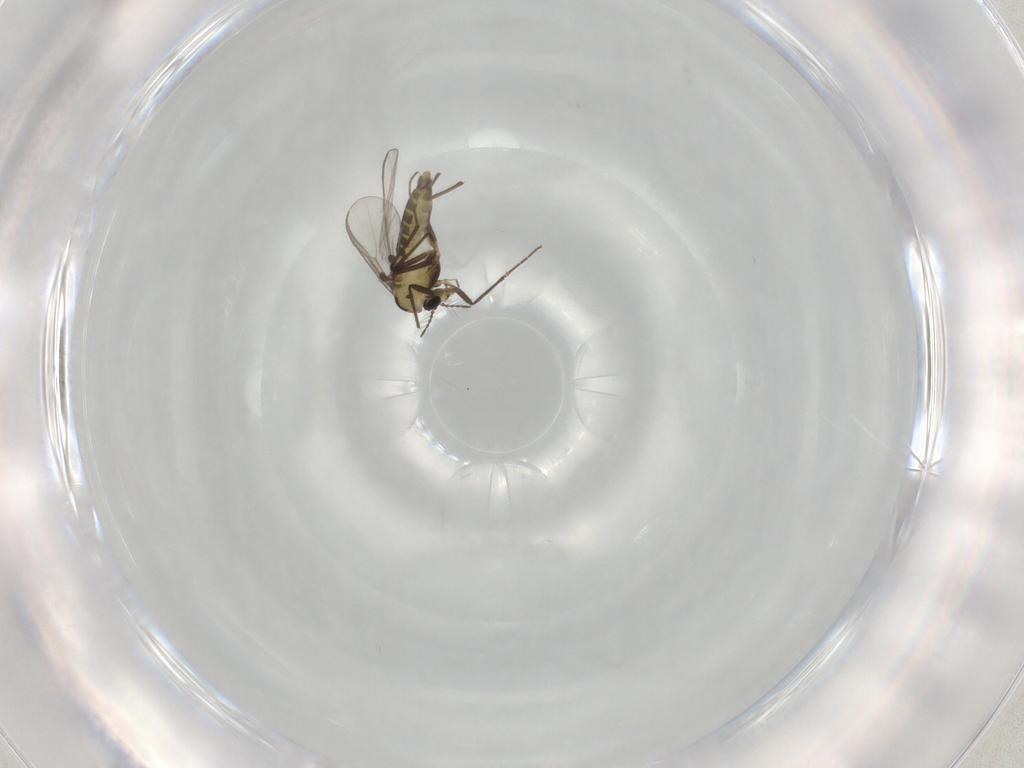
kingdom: Animalia
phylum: Arthropoda
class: Insecta
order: Diptera
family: Chironomidae
